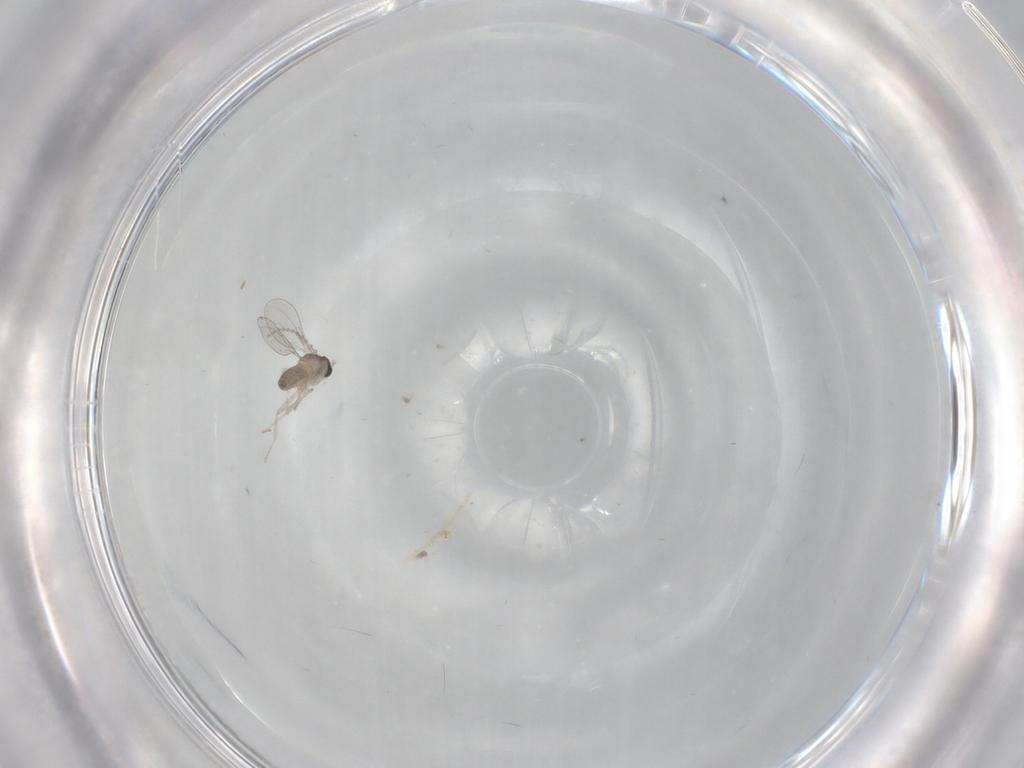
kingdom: Animalia
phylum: Arthropoda
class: Insecta
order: Diptera
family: Cecidomyiidae
